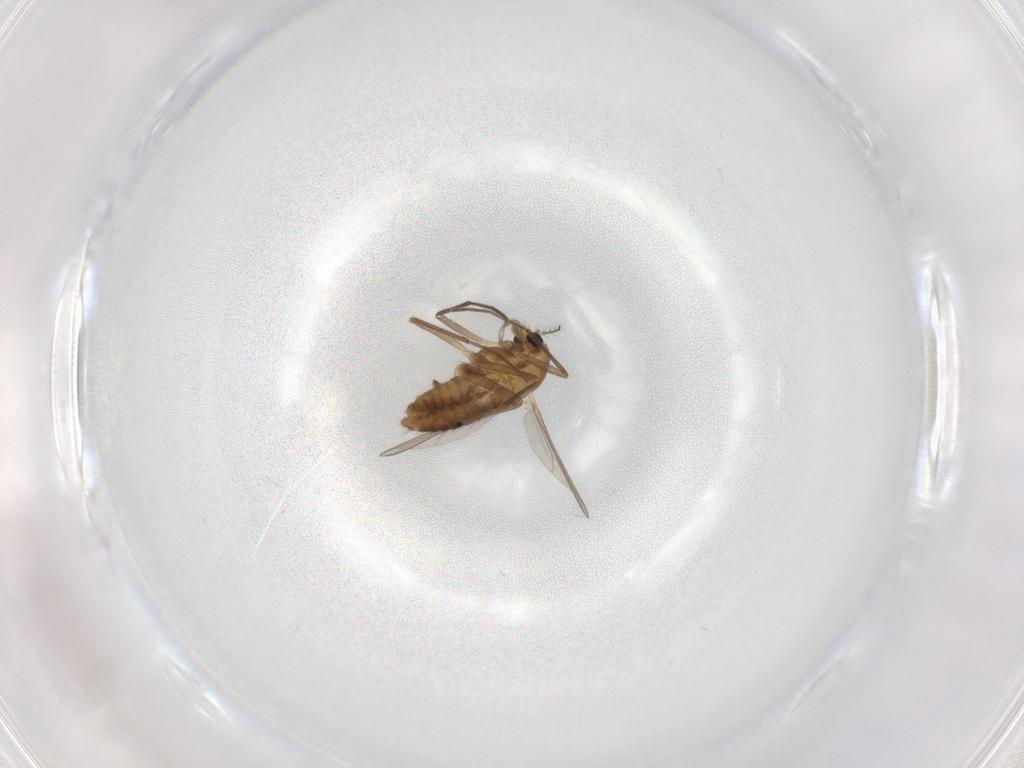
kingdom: Animalia
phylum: Arthropoda
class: Insecta
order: Diptera
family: Chironomidae
